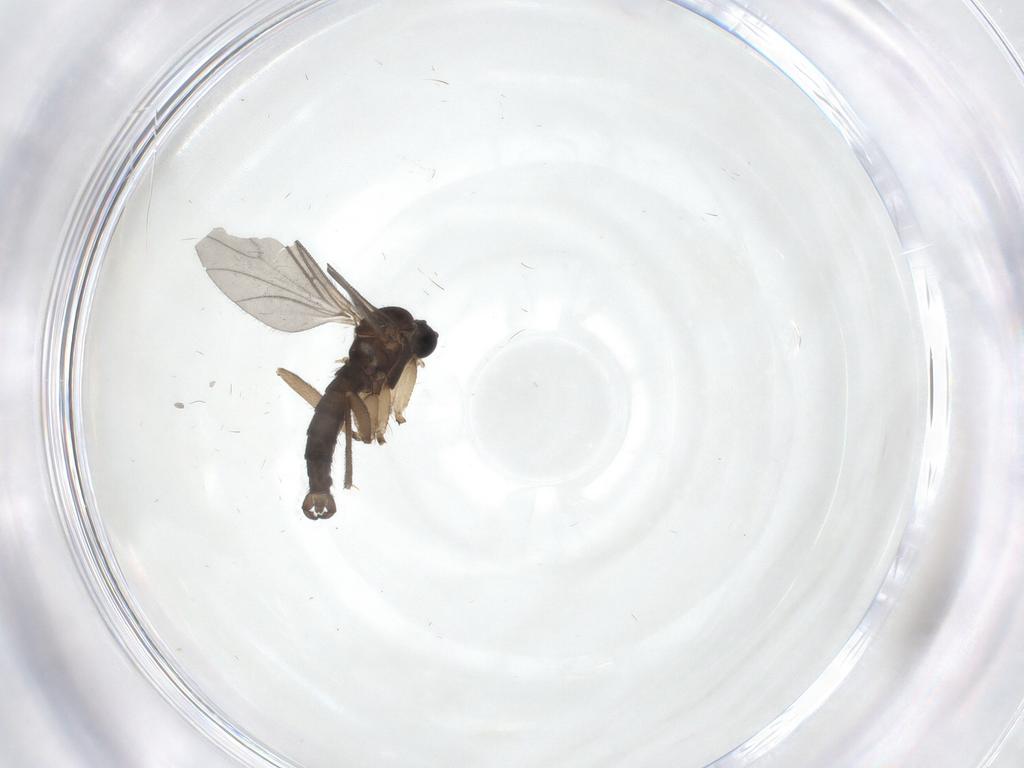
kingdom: Animalia
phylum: Arthropoda
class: Insecta
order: Diptera
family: Sciaridae
